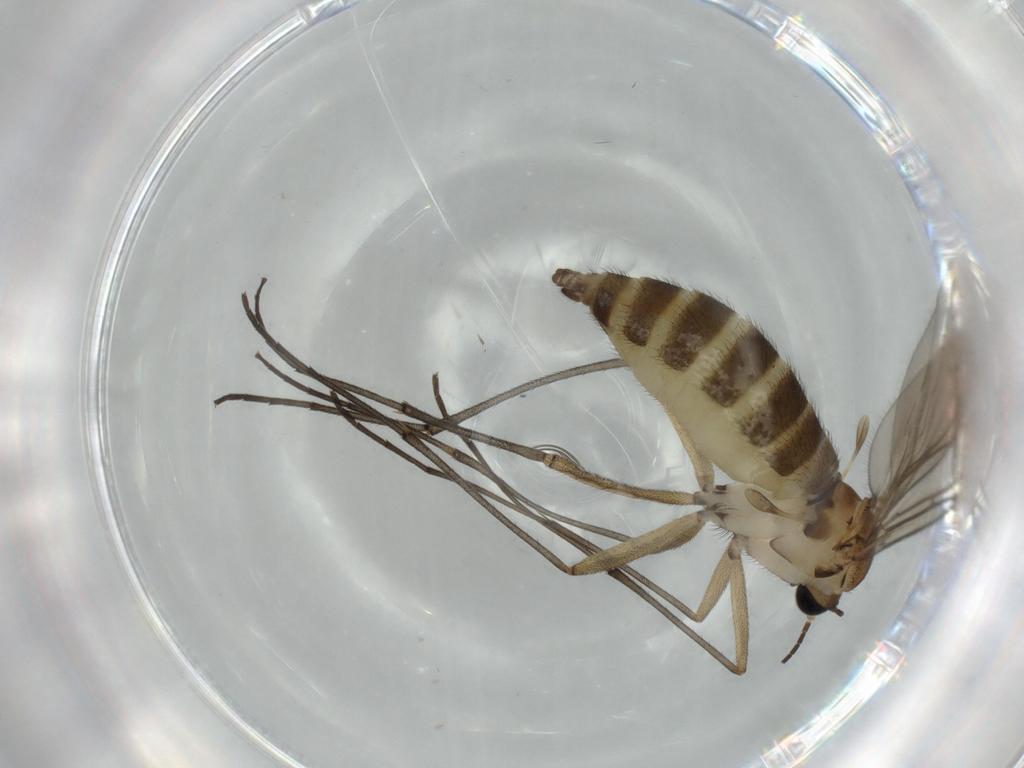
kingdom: Animalia
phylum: Arthropoda
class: Insecta
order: Diptera
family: Sciaridae
